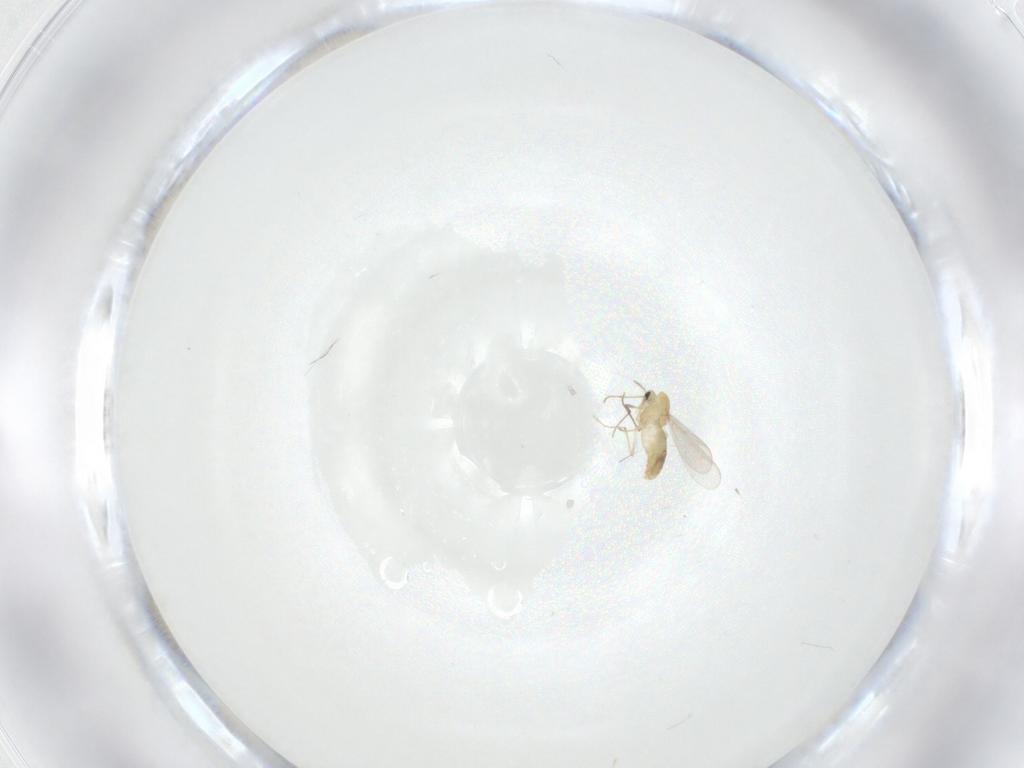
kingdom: Animalia
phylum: Arthropoda
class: Insecta
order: Diptera
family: Chironomidae
